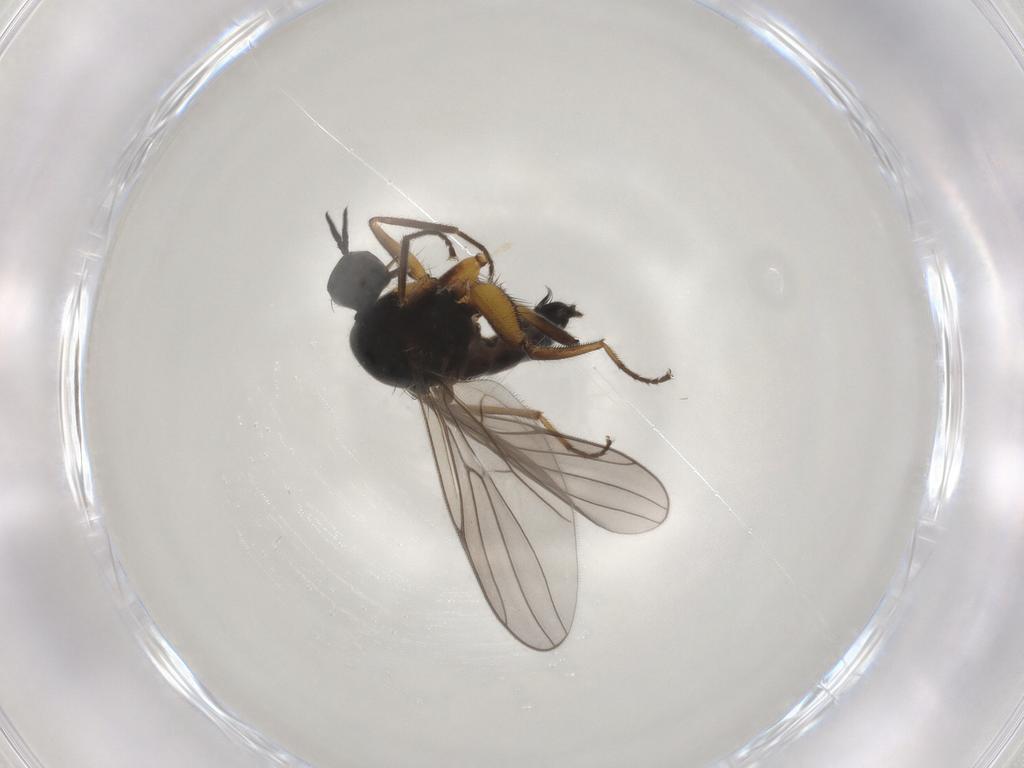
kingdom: Animalia
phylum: Arthropoda
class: Insecta
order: Diptera
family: Hybotidae
